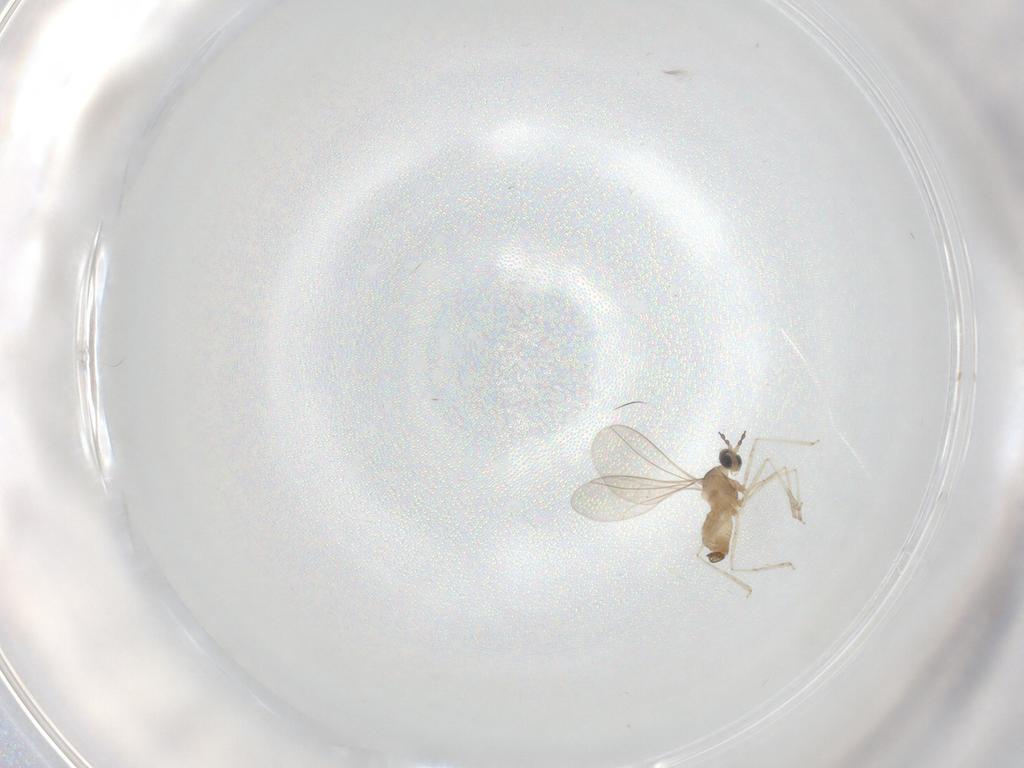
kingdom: Animalia
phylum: Arthropoda
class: Insecta
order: Diptera
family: Cecidomyiidae
